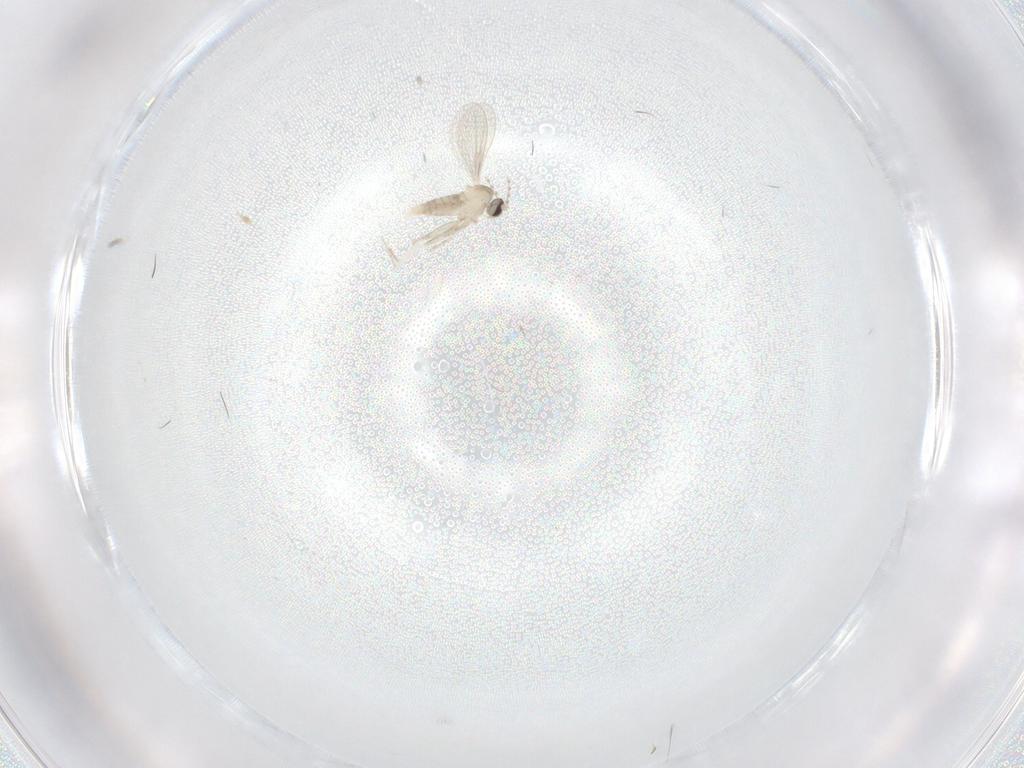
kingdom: Animalia
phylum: Arthropoda
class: Insecta
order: Diptera
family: Cecidomyiidae
